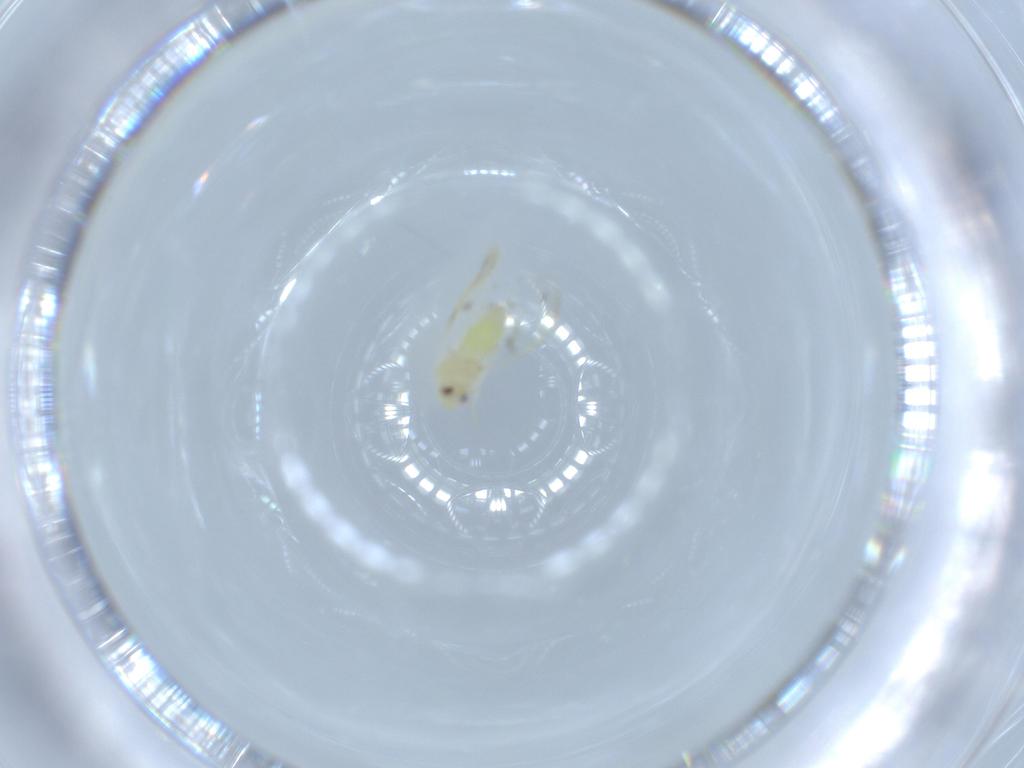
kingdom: Animalia
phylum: Arthropoda
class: Insecta
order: Hemiptera
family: Aleyrodidae
